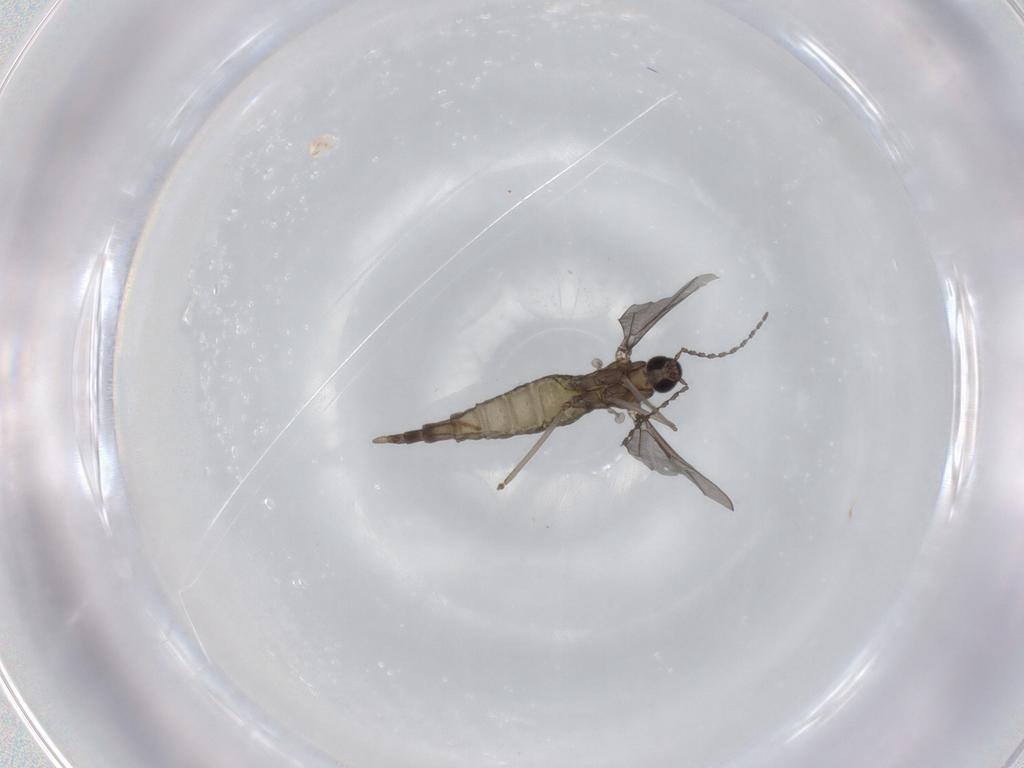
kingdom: Animalia
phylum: Arthropoda
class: Insecta
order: Diptera
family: Cecidomyiidae
